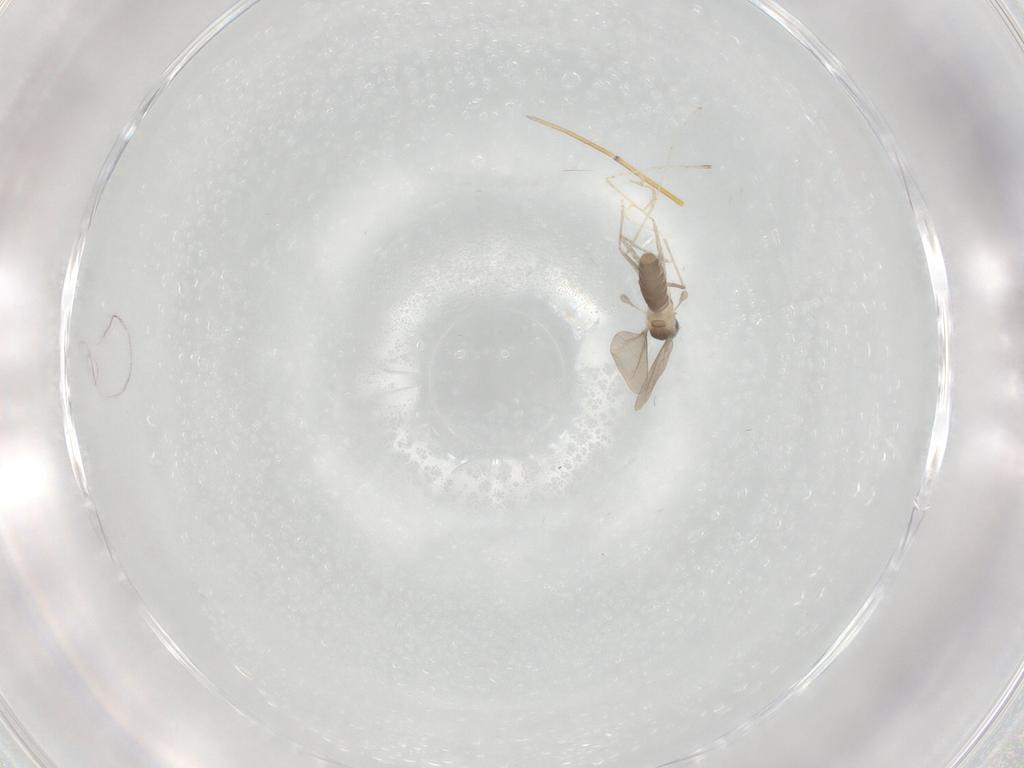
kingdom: Animalia
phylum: Arthropoda
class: Insecta
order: Diptera
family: Cecidomyiidae
